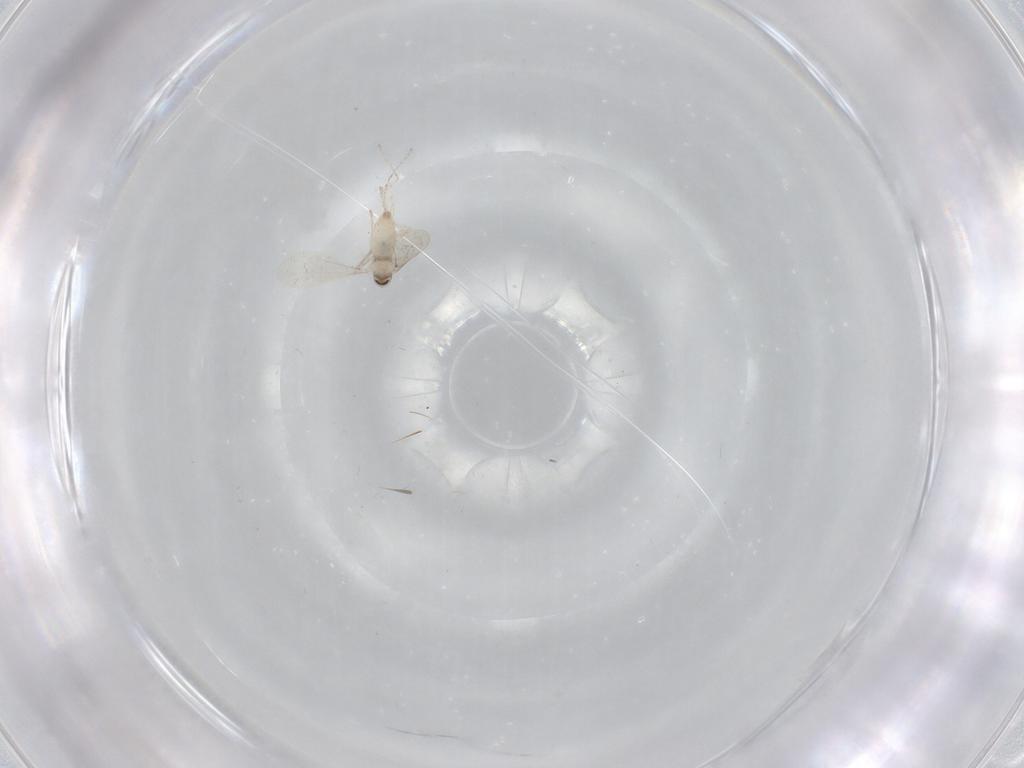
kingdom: Animalia
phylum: Arthropoda
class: Insecta
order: Diptera
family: Cecidomyiidae
